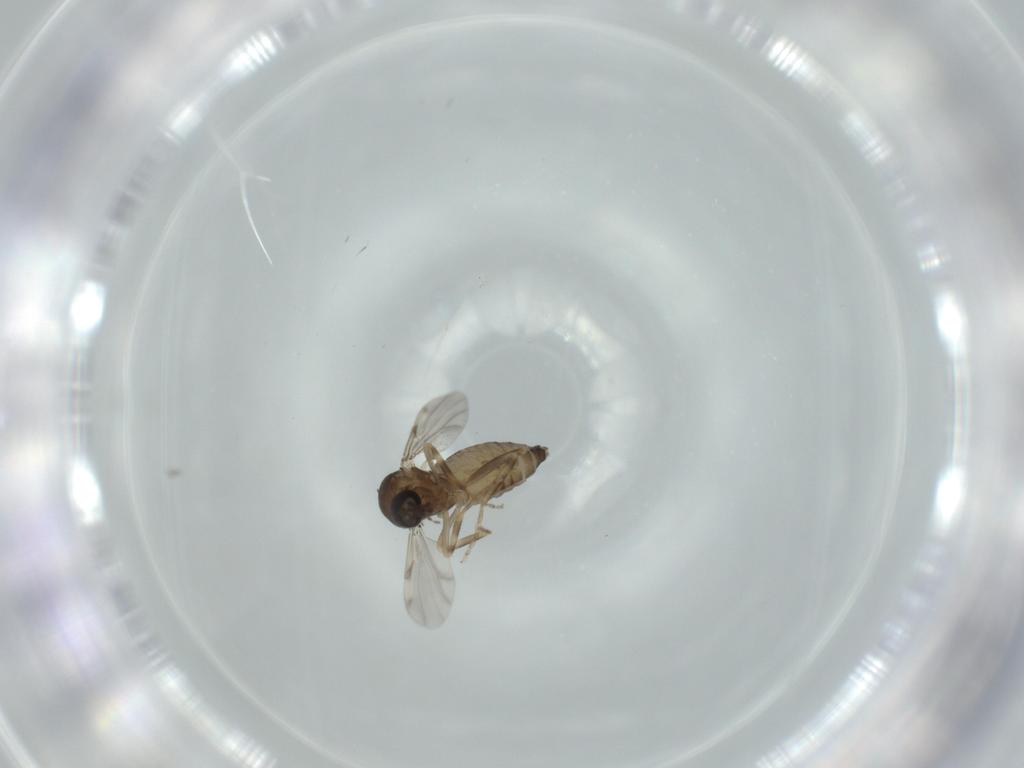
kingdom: Animalia
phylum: Arthropoda
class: Insecta
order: Diptera
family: Ceratopogonidae
